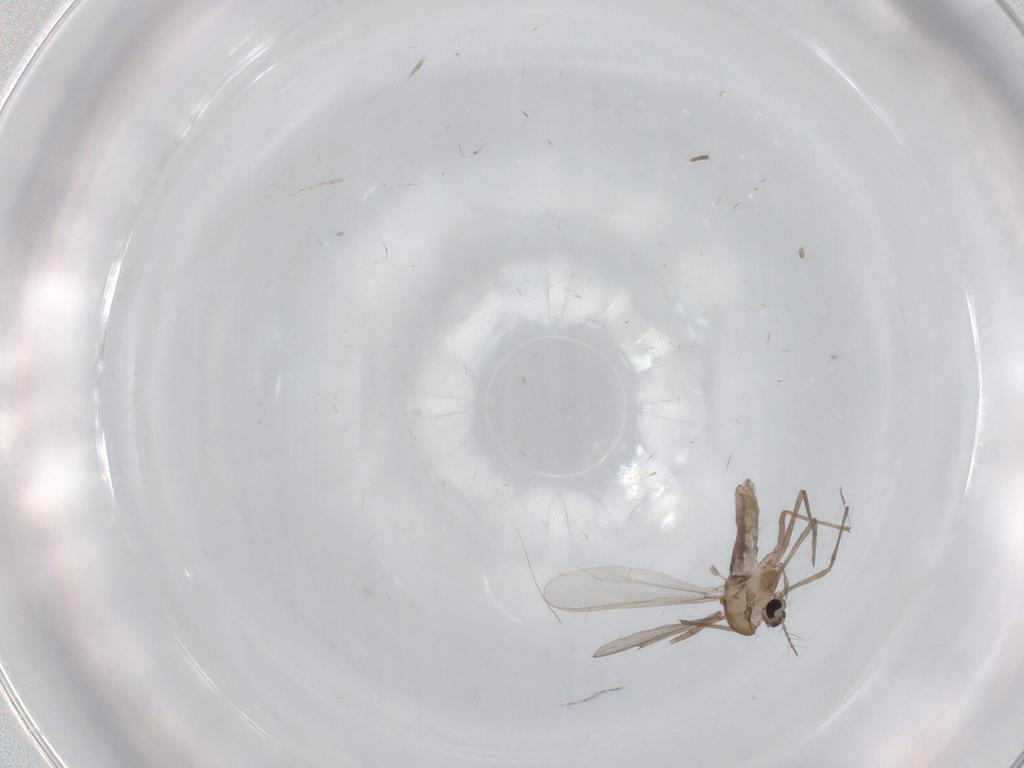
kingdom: Animalia
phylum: Arthropoda
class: Insecta
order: Diptera
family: Chironomidae
